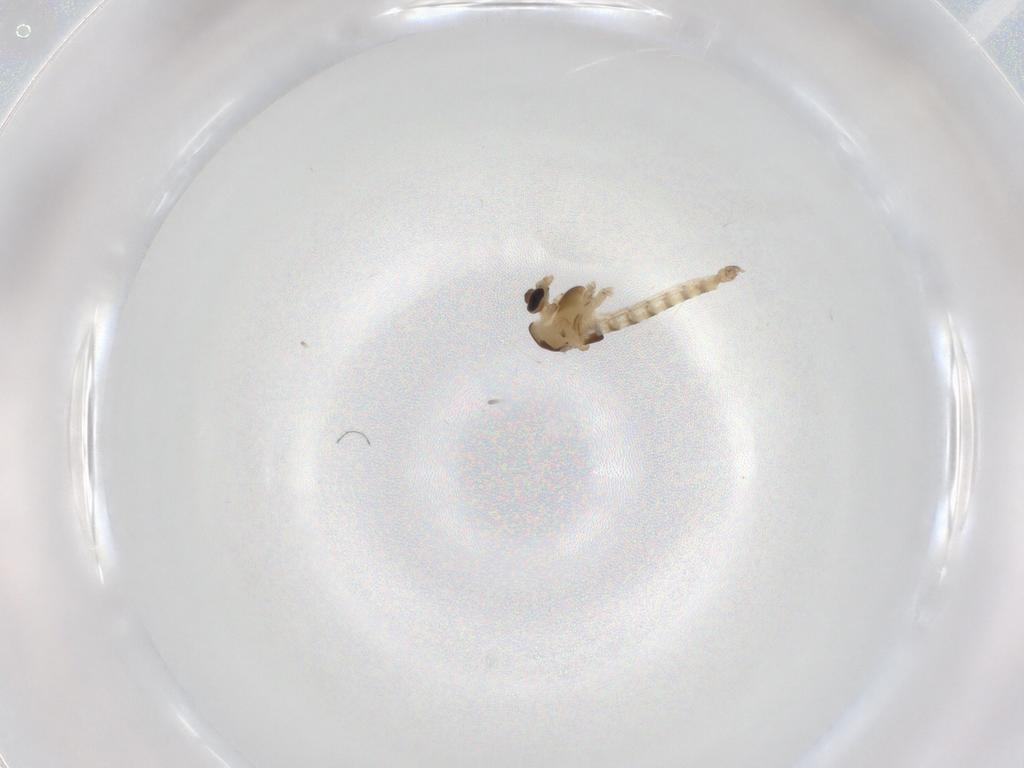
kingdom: Animalia
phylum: Arthropoda
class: Insecta
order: Diptera
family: Chironomidae
